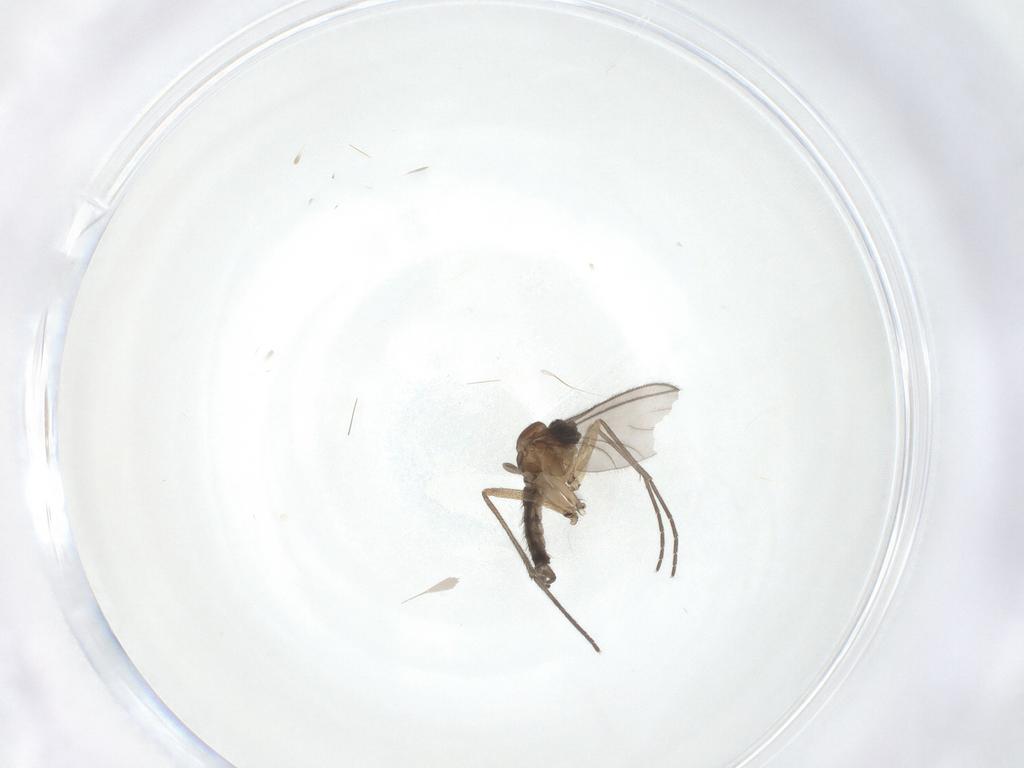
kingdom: Animalia
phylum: Arthropoda
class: Insecta
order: Diptera
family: Sciaridae
